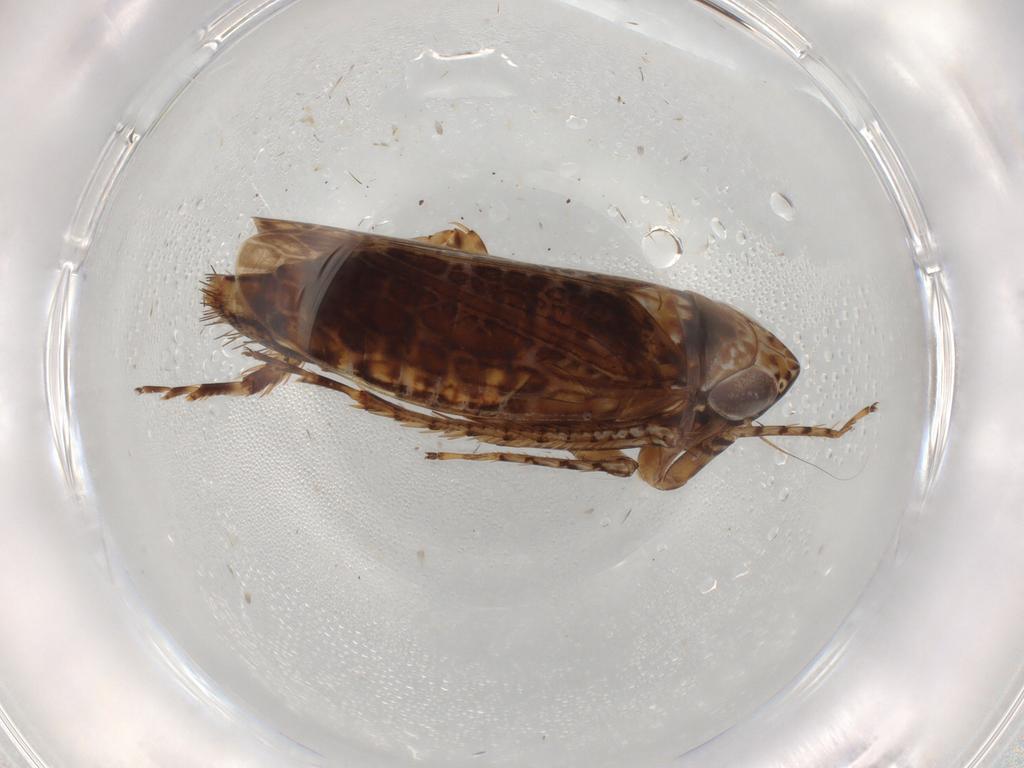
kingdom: Animalia
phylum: Arthropoda
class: Insecta
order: Hemiptera
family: Cicadellidae
